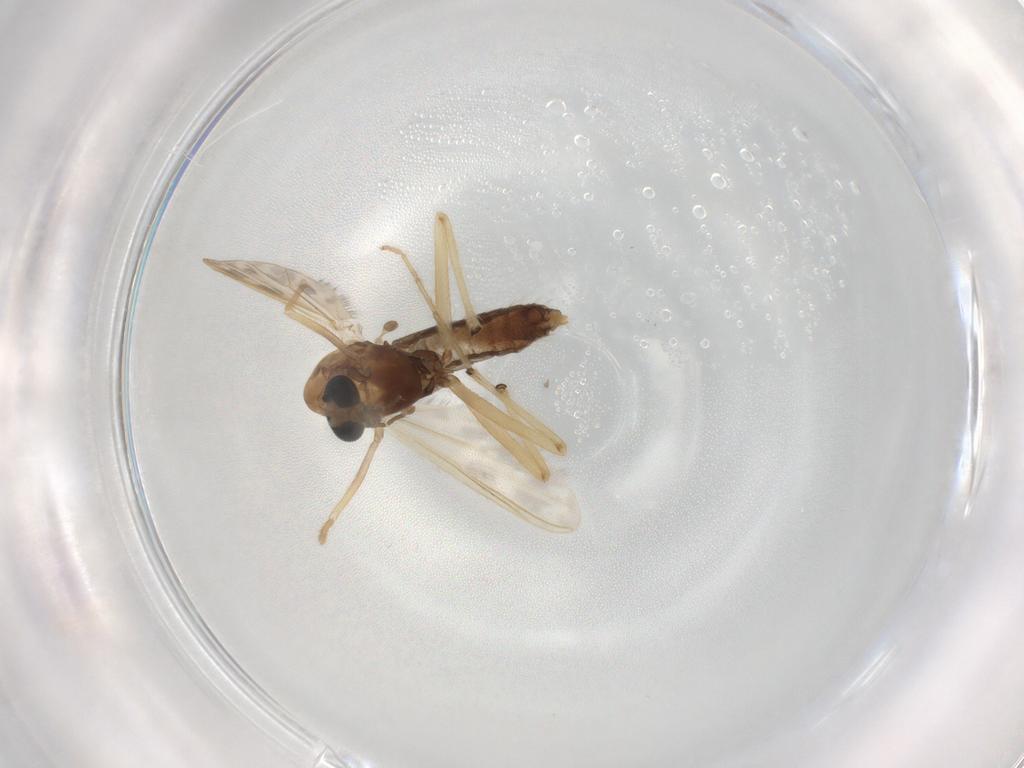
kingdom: Animalia
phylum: Arthropoda
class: Insecta
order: Diptera
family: Chironomidae
